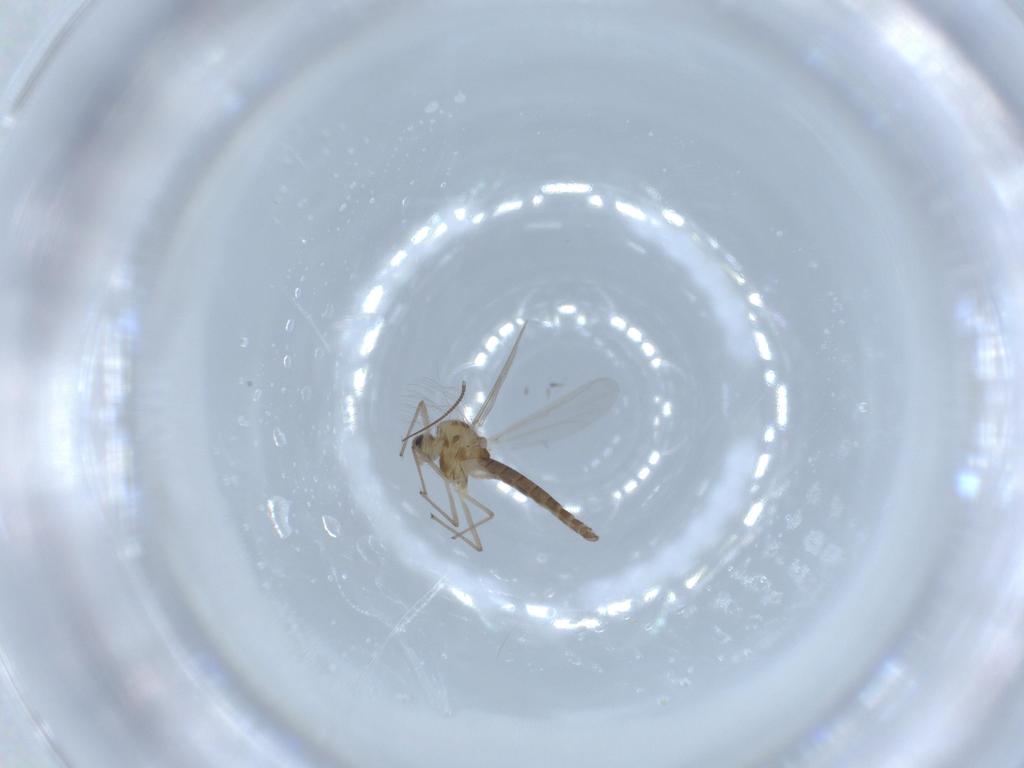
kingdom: Animalia
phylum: Arthropoda
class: Insecta
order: Diptera
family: Chironomidae
